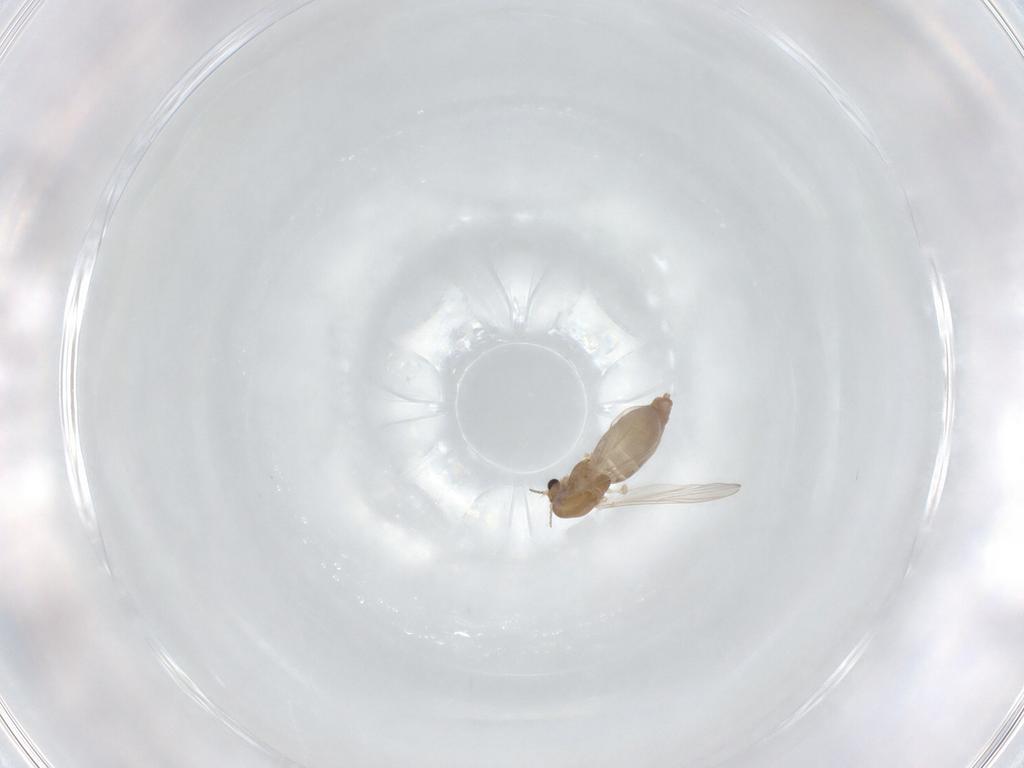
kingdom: Animalia
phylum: Arthropoda
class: Insecta
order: Diptera
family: Chironomidae
